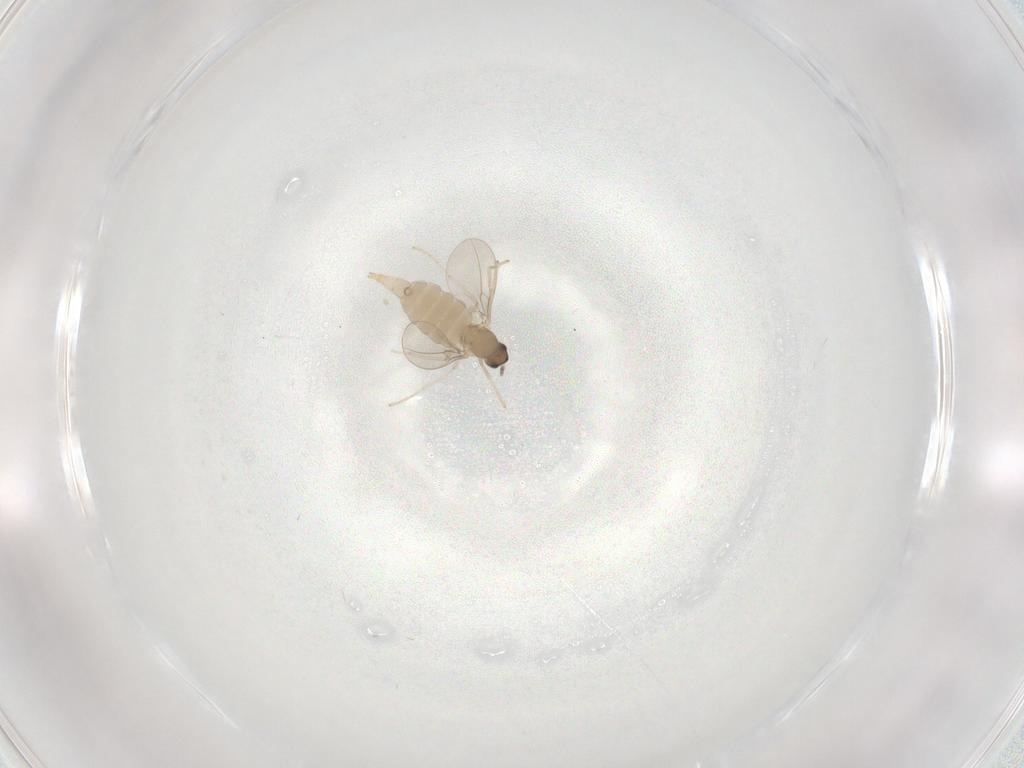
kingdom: Animalia
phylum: Arthropoda
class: Insecta
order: Diptera
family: Cecidomyiidae
